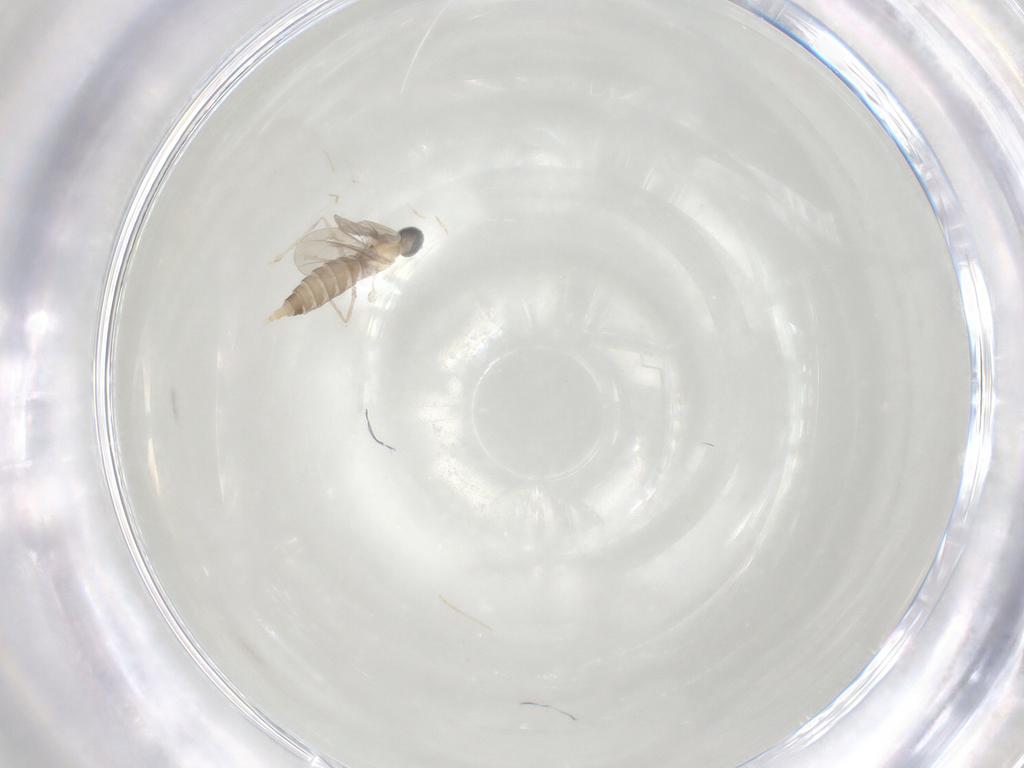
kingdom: Animalia
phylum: Arthropoda
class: Insecta
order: Diptera
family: Cecidomyiidae
